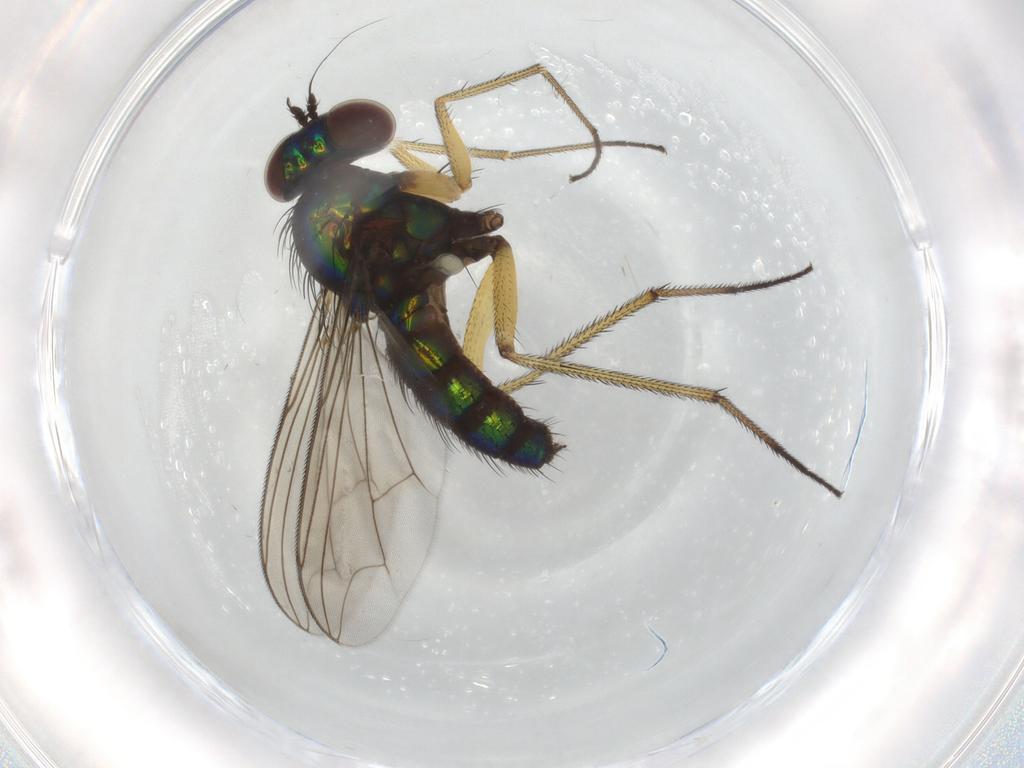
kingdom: Animalia
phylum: Arthropoda
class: Insecta
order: Diptera
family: Dolichopodidae
